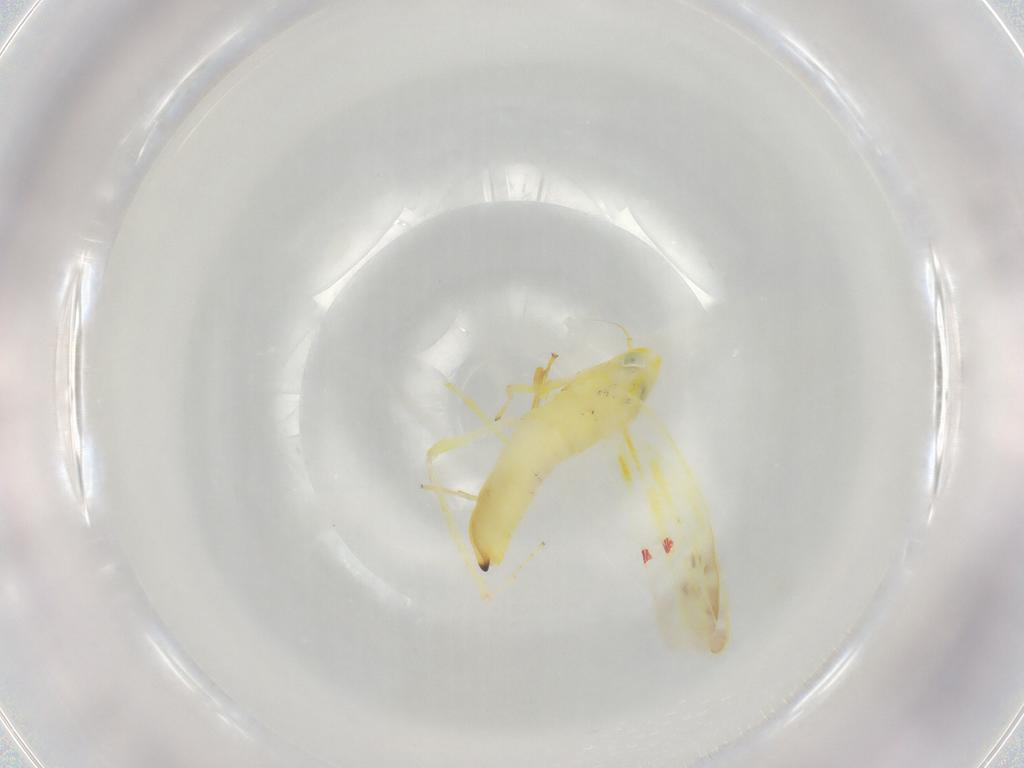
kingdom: Animalia
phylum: Arthropoda
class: Insecta
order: Hemiptera
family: Cicadellidae
